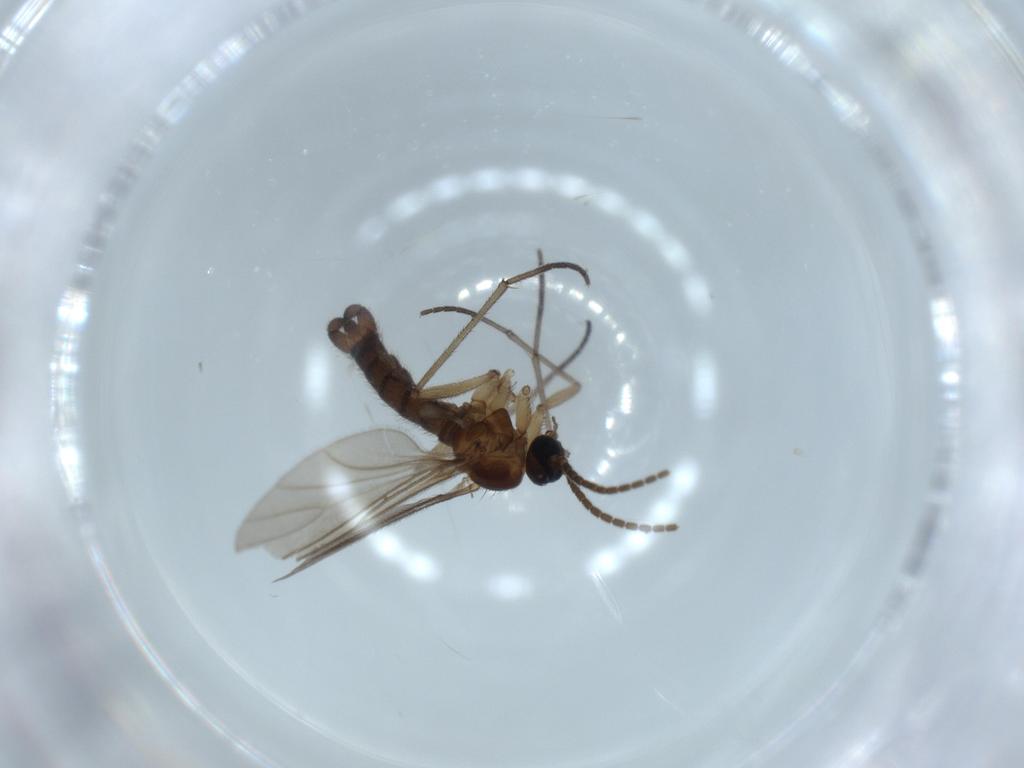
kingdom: Animalia
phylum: Arthropoda
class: Insecta
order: Diptera
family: Sciaridae
